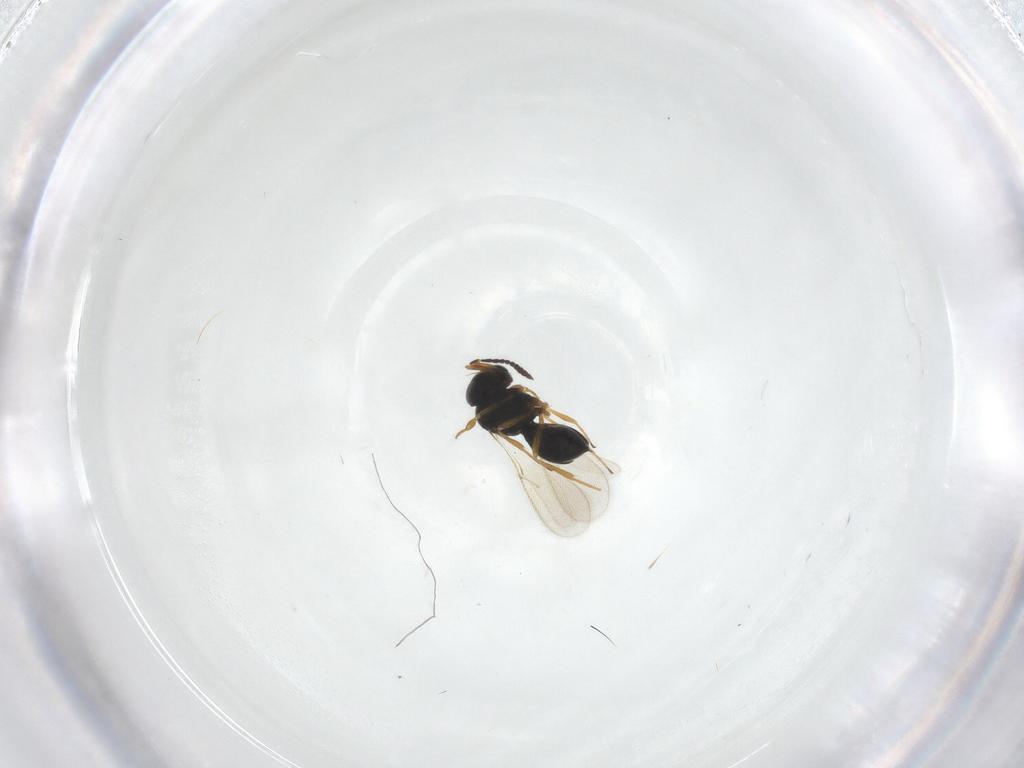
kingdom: Animalia
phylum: Arthropoda
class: Insecta
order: Hymenoptera
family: Scelionidae
